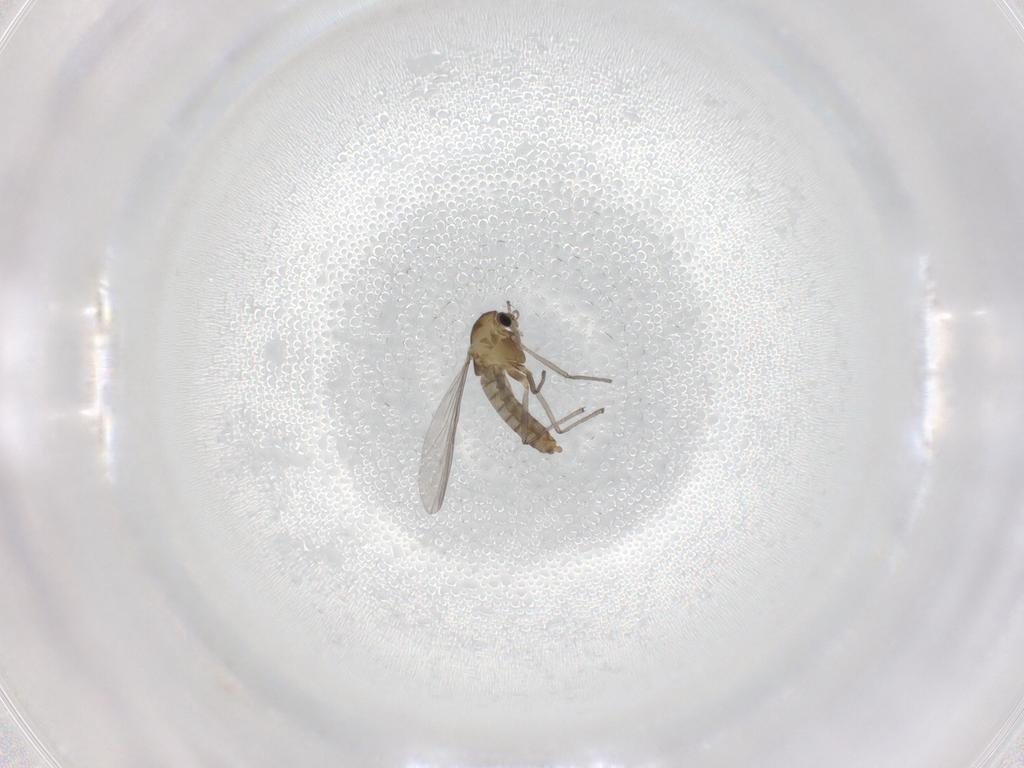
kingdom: Animalia
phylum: Arthropoda
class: Insecta
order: Diptera
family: Chironomidae
